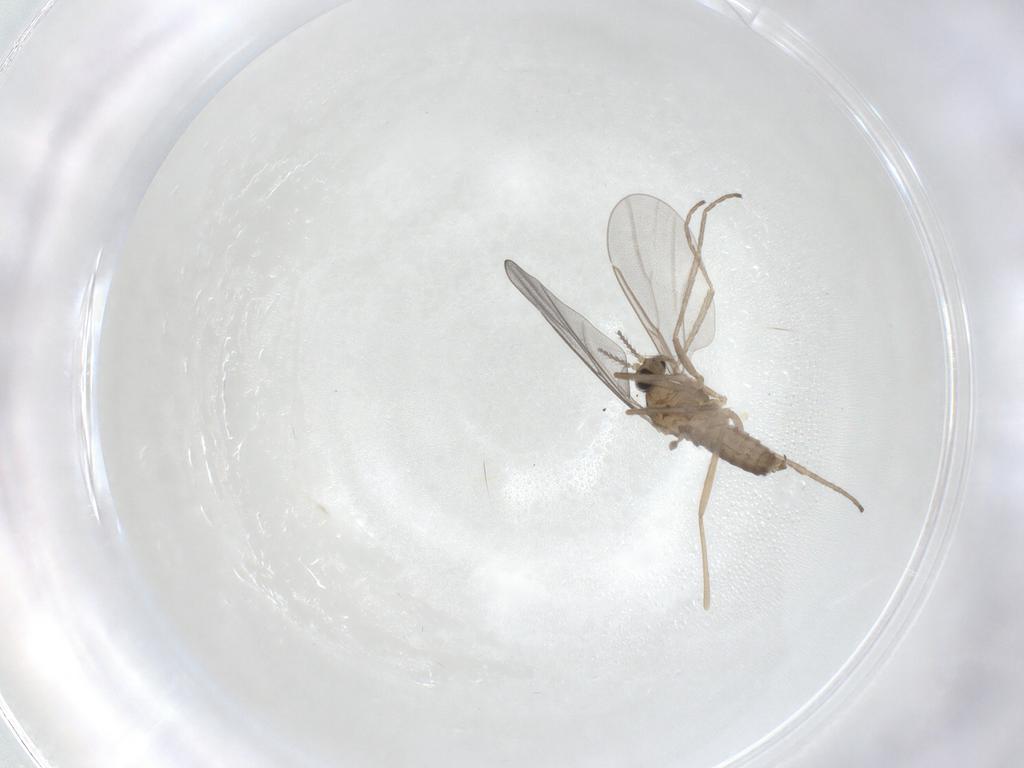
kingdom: Animalia
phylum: Arthropoda
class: Insecta
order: Diptera
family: Cecidomyiidae
